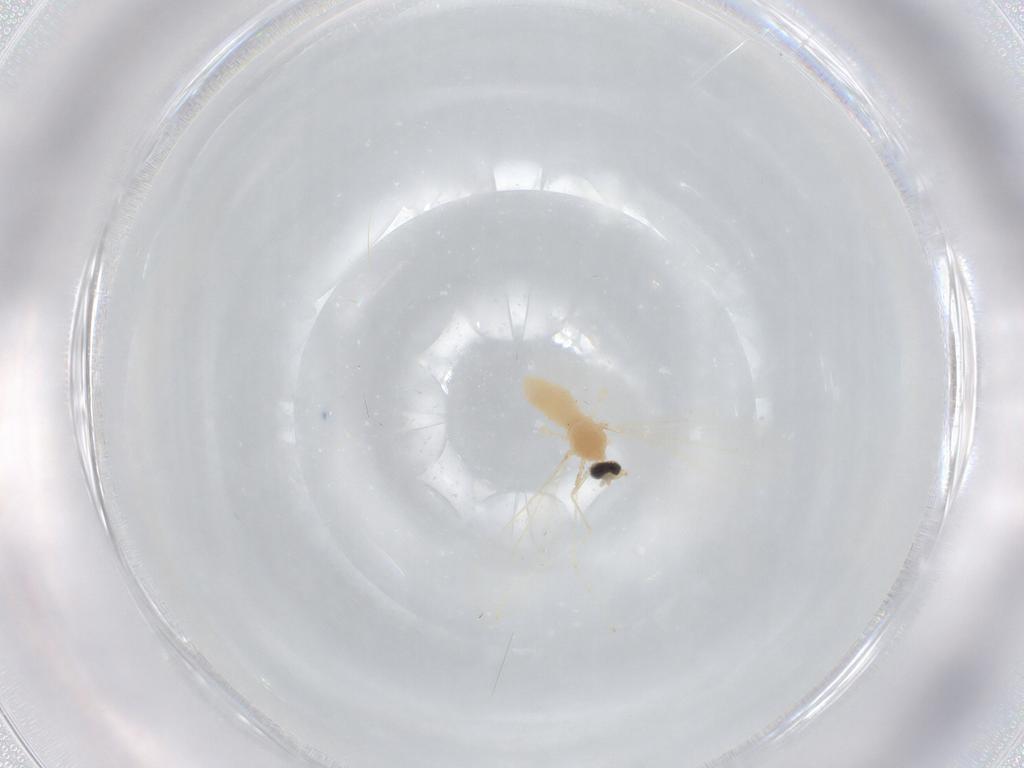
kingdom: Animalia
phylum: Arthropoda
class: Insecta
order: Diptera
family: Cecidomyiidae
